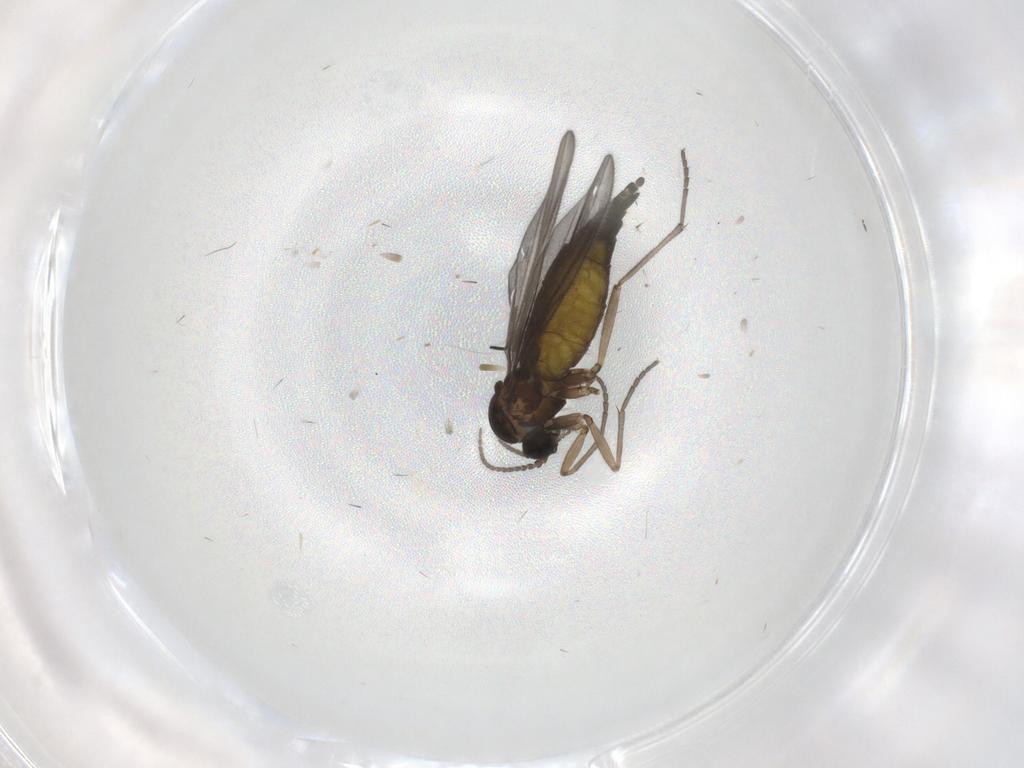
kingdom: Animalia
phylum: Arthropoda
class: Insecta
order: Diptera
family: Sciaridae
